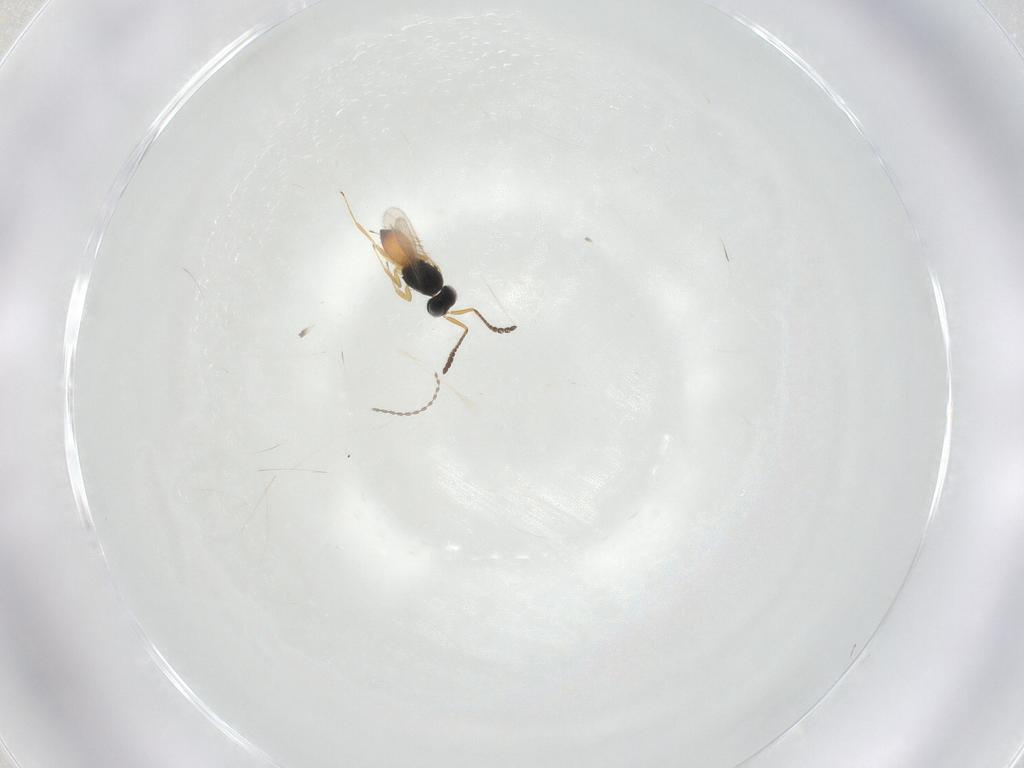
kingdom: Animalia
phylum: Arthropoda
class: Insecta
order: Hymenoptera
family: Scelionidae
